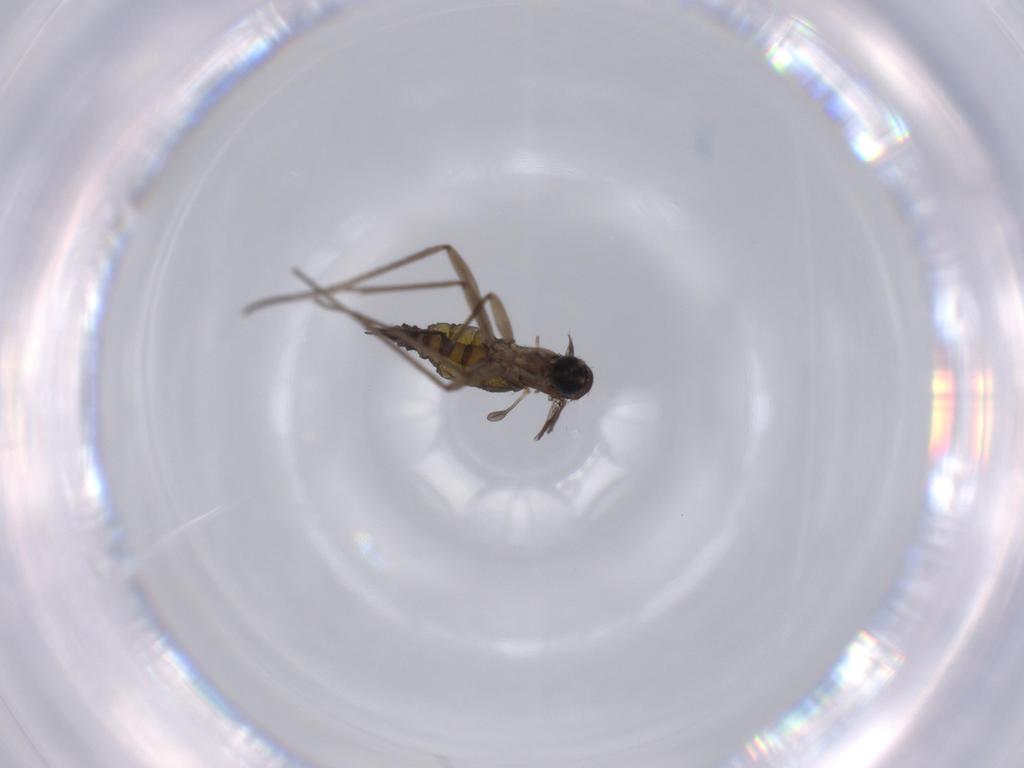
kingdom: Animalia
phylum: Arthropoda
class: Insecta
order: Diptera
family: Sciaridae
